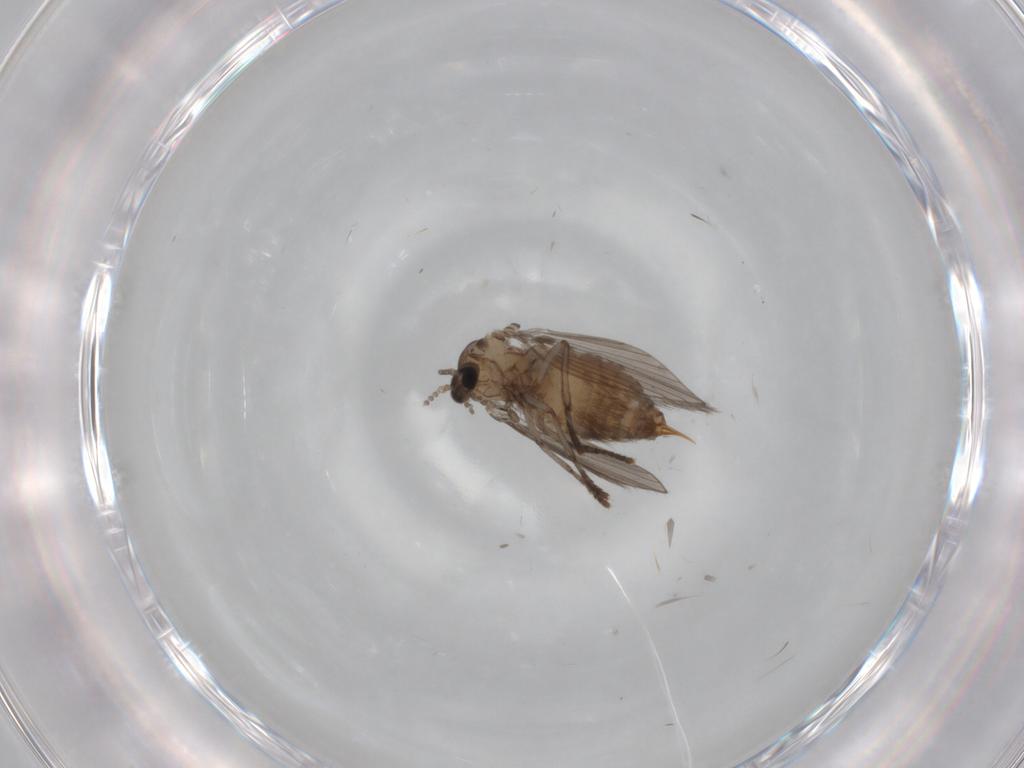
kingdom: Animalia
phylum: Arthropoda
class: Insecta
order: Diptera
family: Psychodidae
